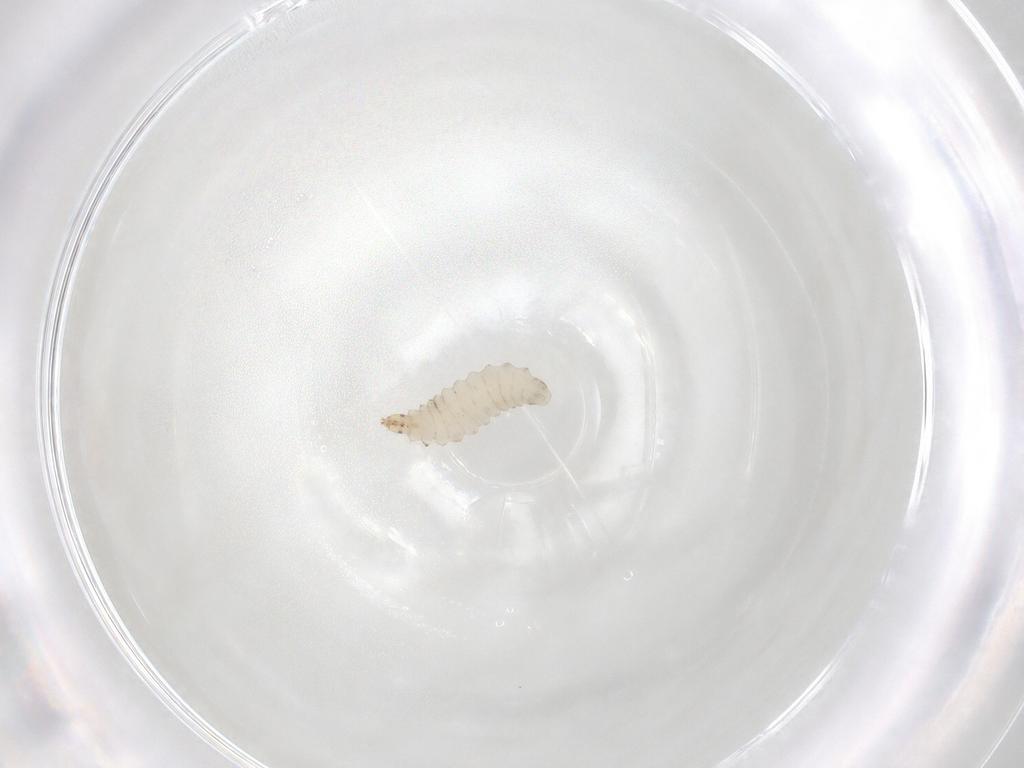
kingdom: Animalia
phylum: Arthropoda
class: Insecta
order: Diptera
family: Stratiomyidae
